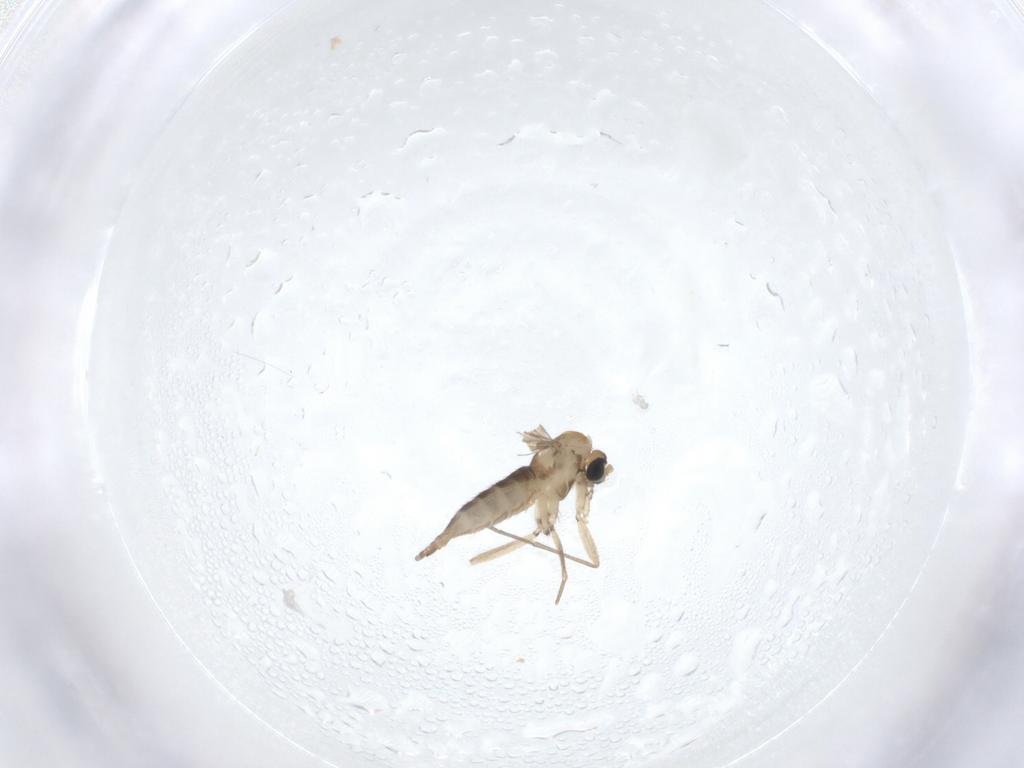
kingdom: Animalia
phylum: Arthropoda
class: Insecta
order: Diptera
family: Sciaridae
